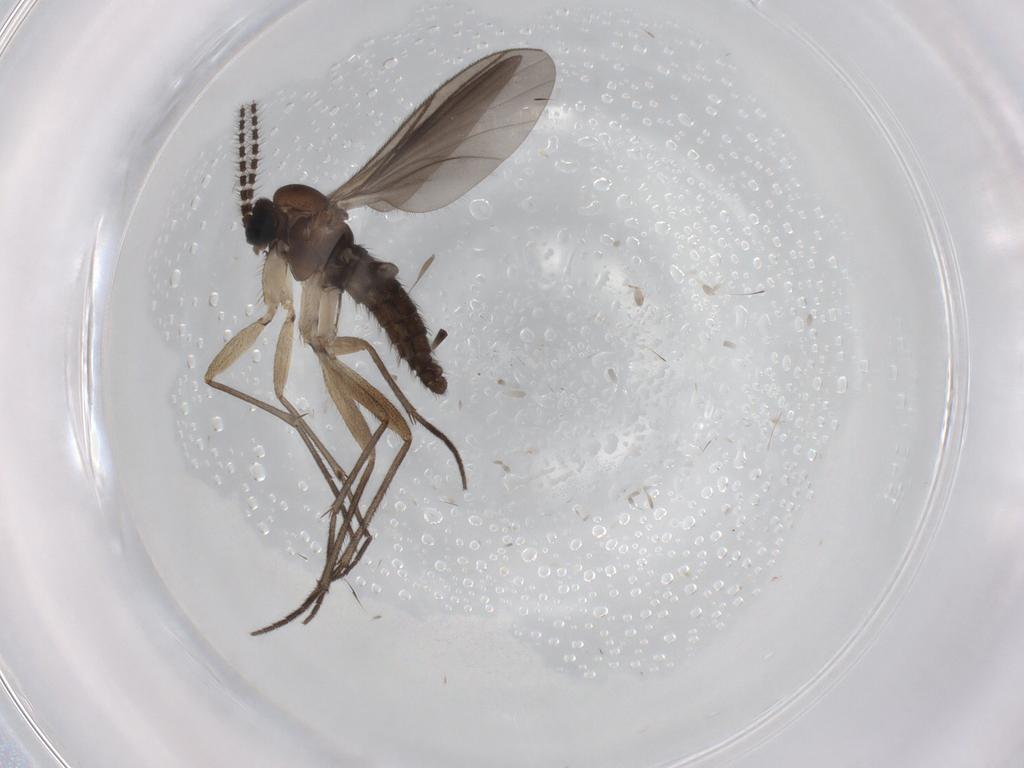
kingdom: Animalia
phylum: Arthropoda
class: Insecta
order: Diptera
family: Sciaridae
